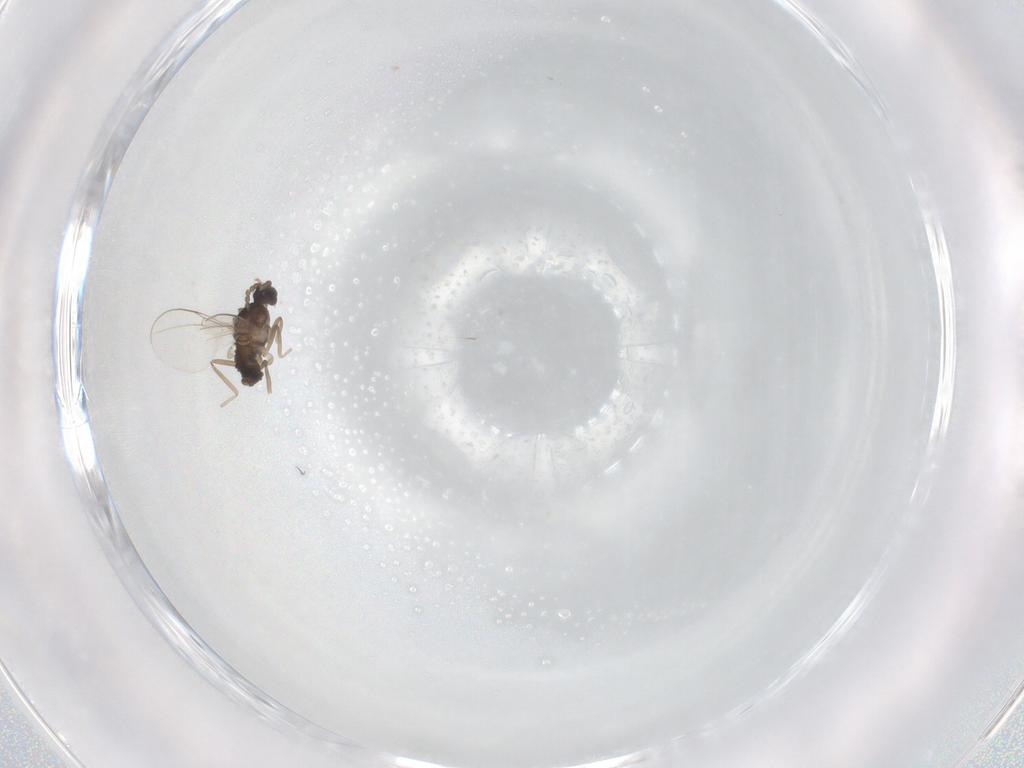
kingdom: Animalia
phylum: Arthropoda
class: Insecta
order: Diptera
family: Cecidomyiidae
